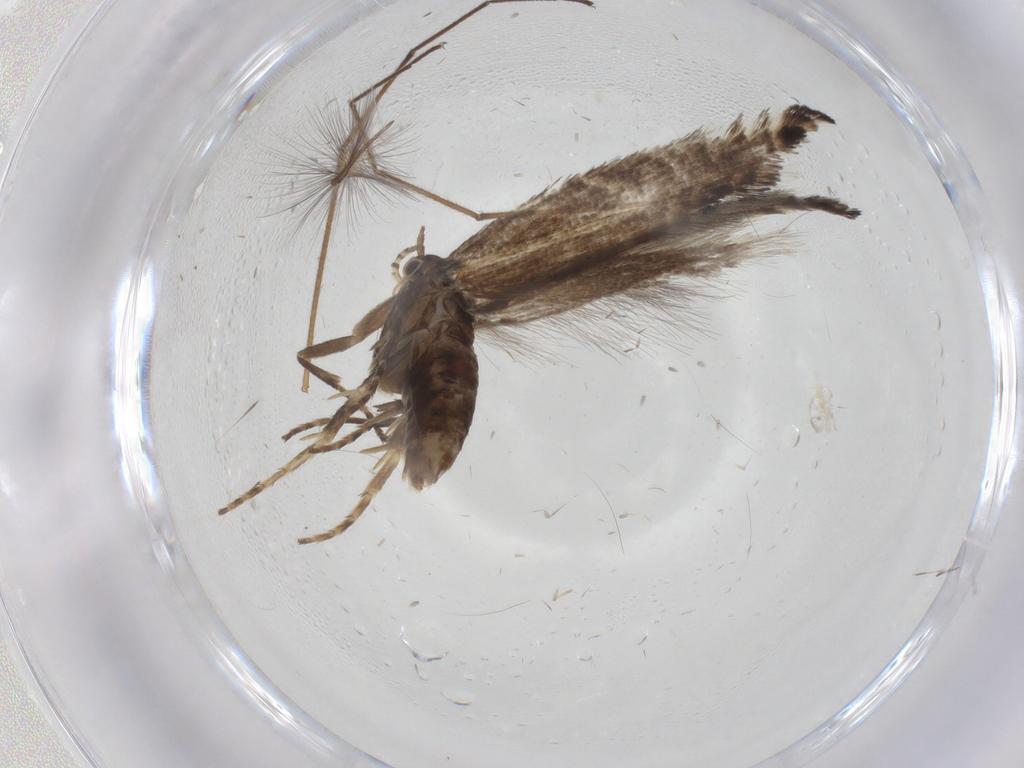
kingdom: Animalia
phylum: Arthropoda
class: Insecta
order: Lepidoptera
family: Glyphipterigidae
